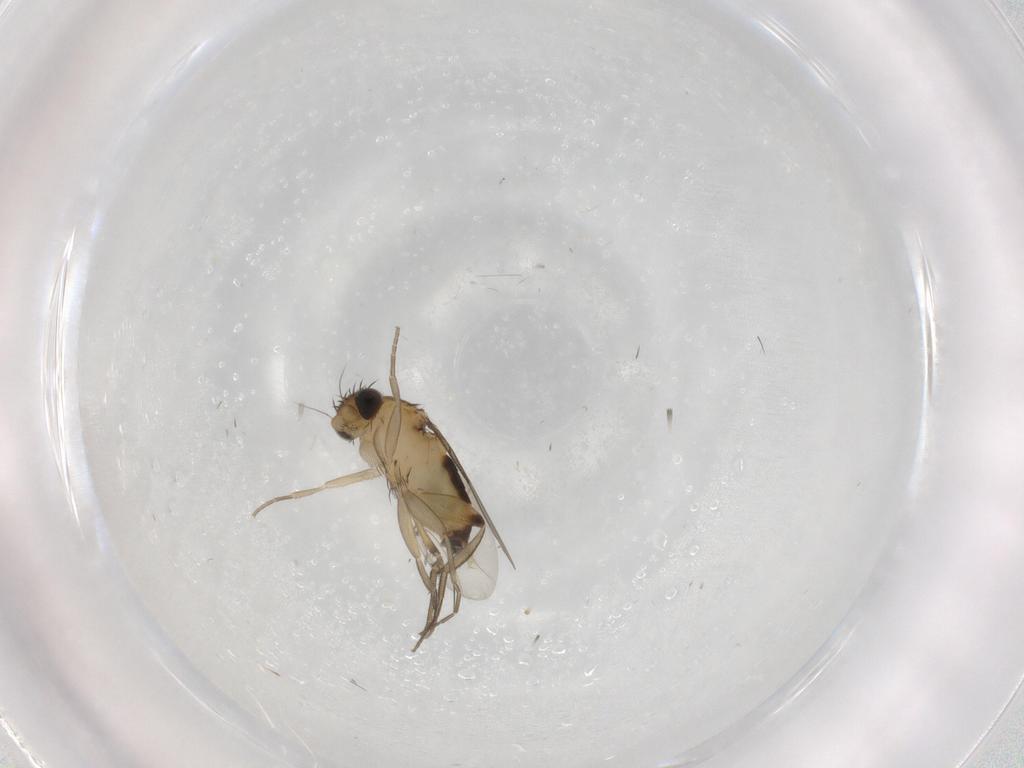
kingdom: Animalia
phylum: Arthropoda
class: Insecta
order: Diptera
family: Phoridae
